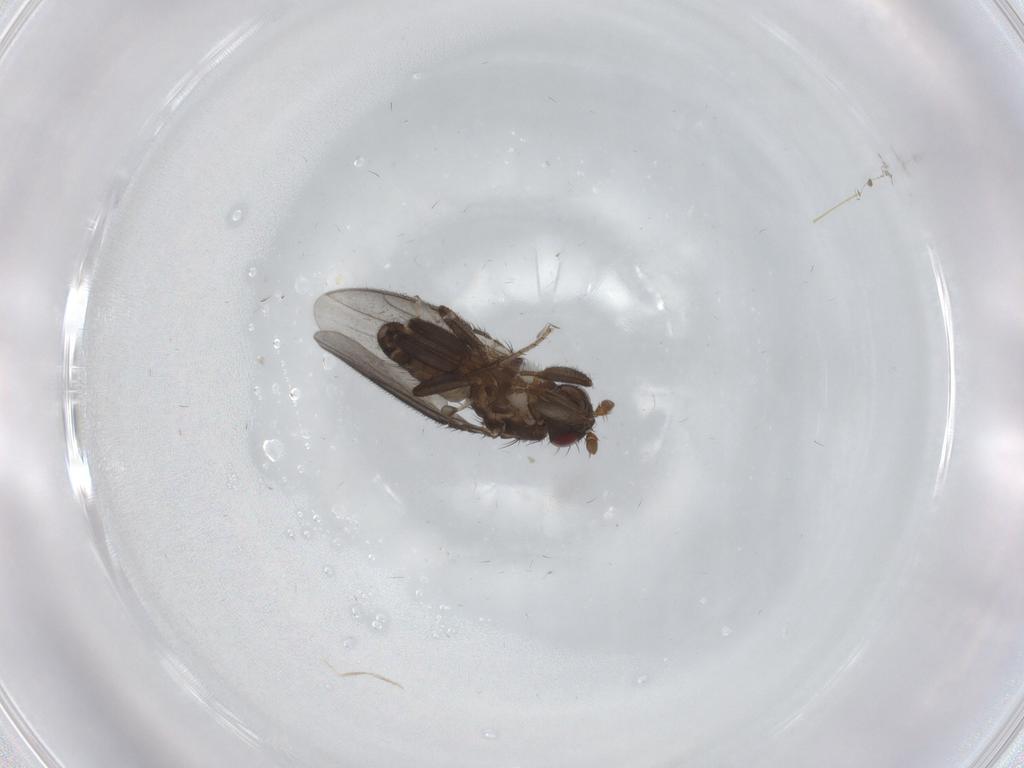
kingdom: Animalia
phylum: Arthropoda
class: Insecta
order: Diptera
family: Sphaeroceridae
